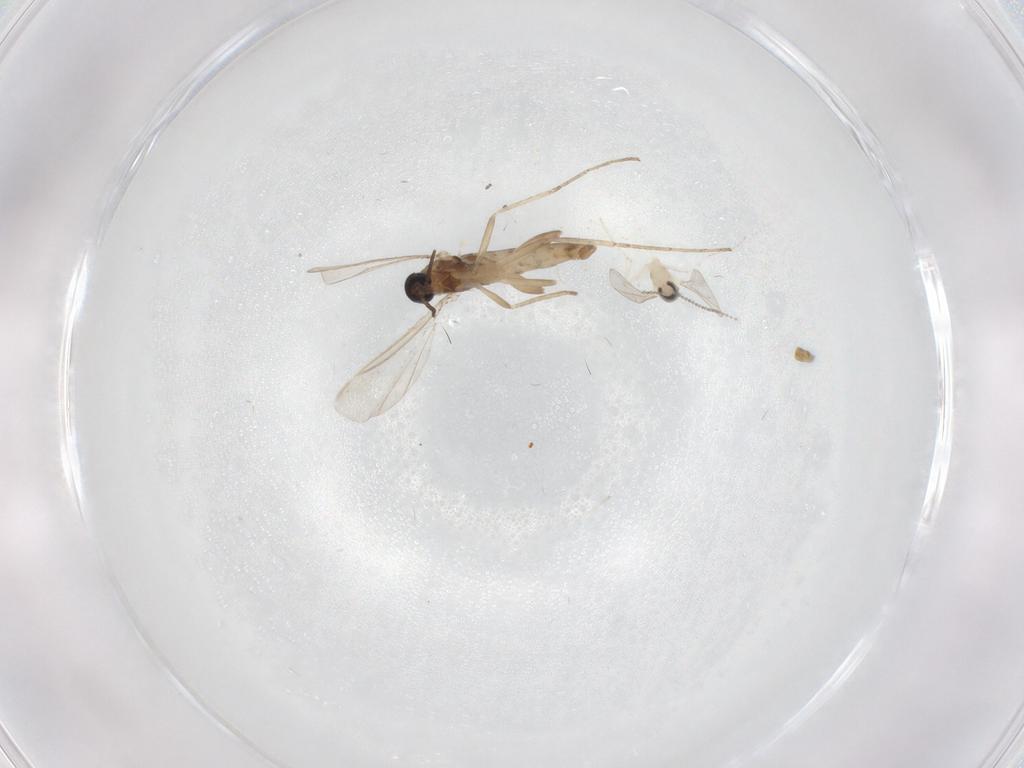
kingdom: Animalia
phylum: Arthropoda
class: Insecta
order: Diptera
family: Cecidomyiidae
